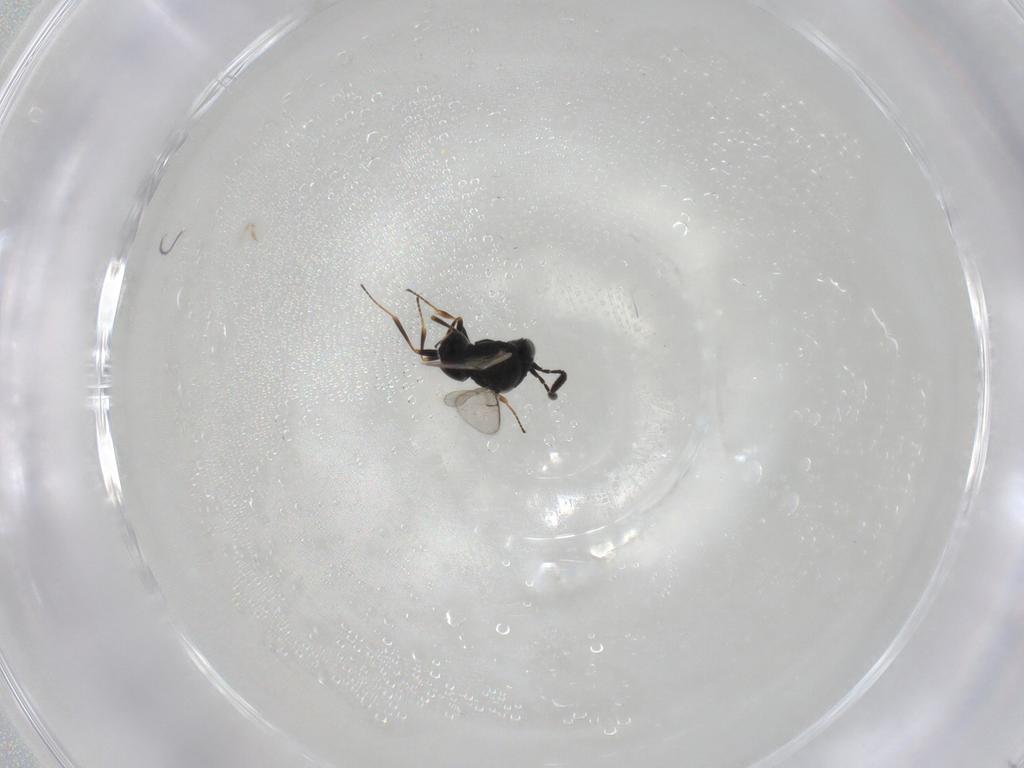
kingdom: Animalia
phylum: Arthropoda
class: Insecta
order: Hymenoptera
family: Scelionidae
